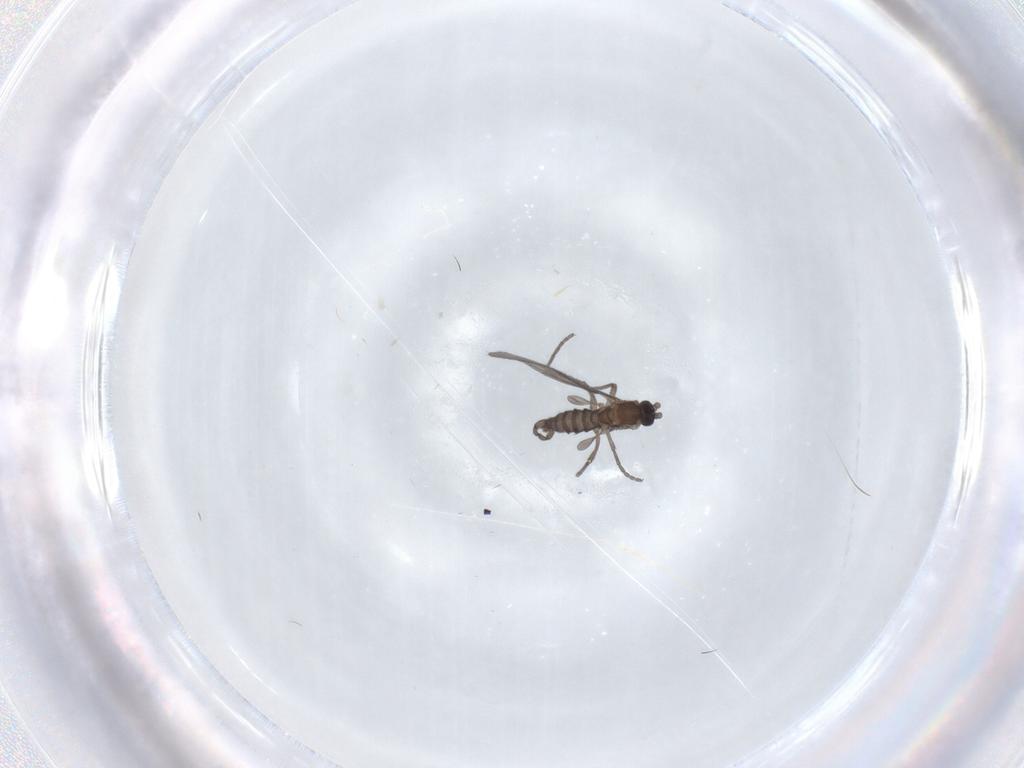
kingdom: Animalia
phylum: Arthropoda
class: Insecta
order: Diptera
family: Sciaridae
